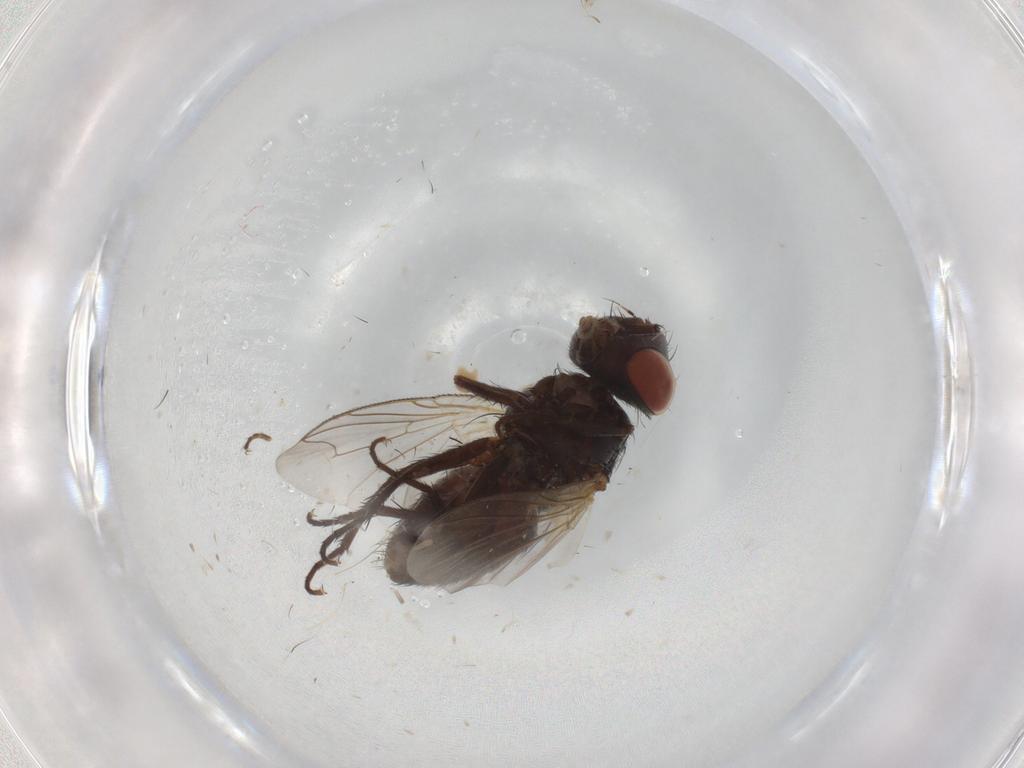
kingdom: Animalia
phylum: Arthropoda
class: Insecta
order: Diptera
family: Sarcophagidae
